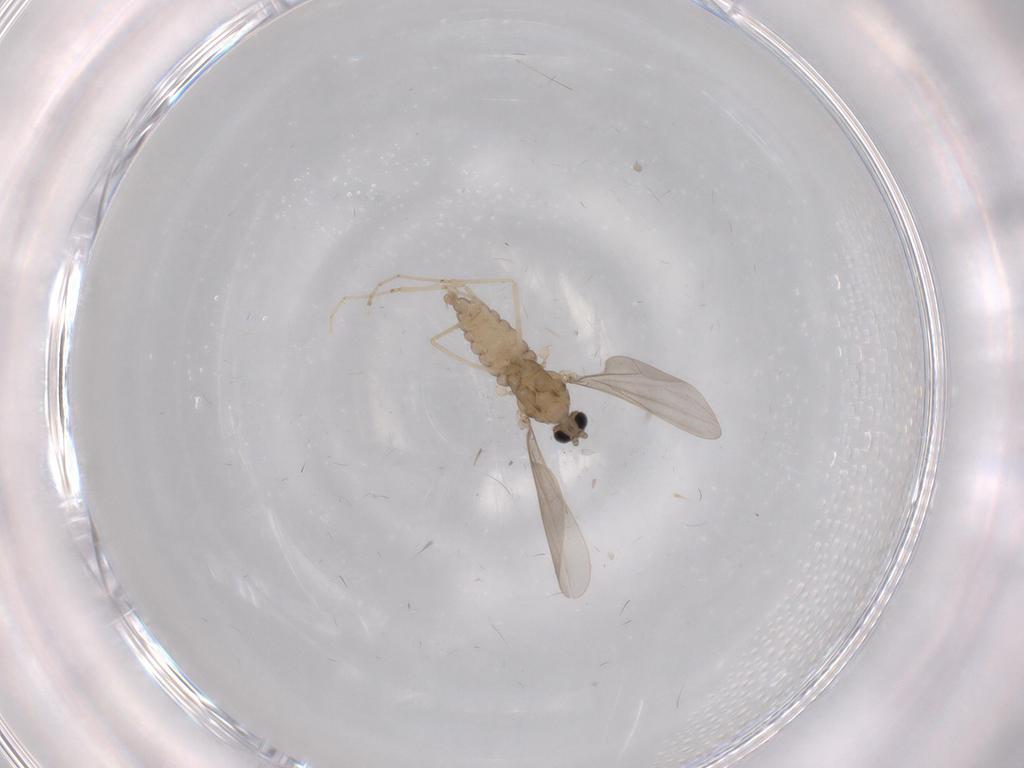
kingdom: Animalia
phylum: Arthropoda
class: Insecta
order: Diptera
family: Cecidomyiidae
